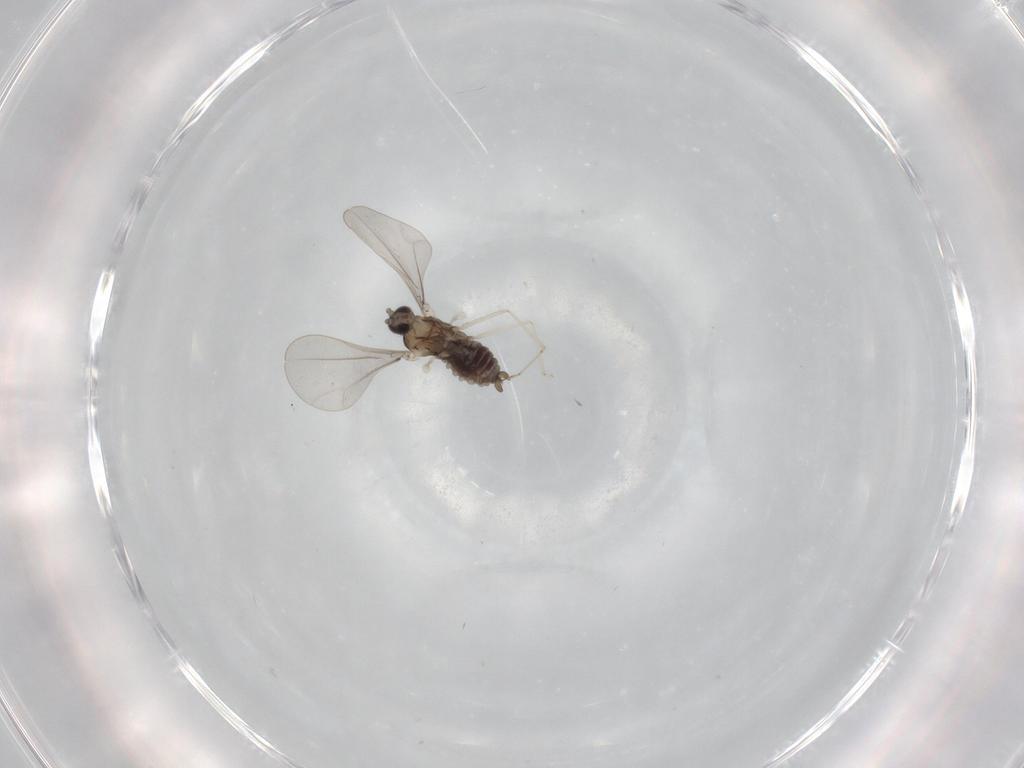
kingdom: Animalia
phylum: Arthropoda
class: Insecta
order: Diptera
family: Cecidomyiidae
